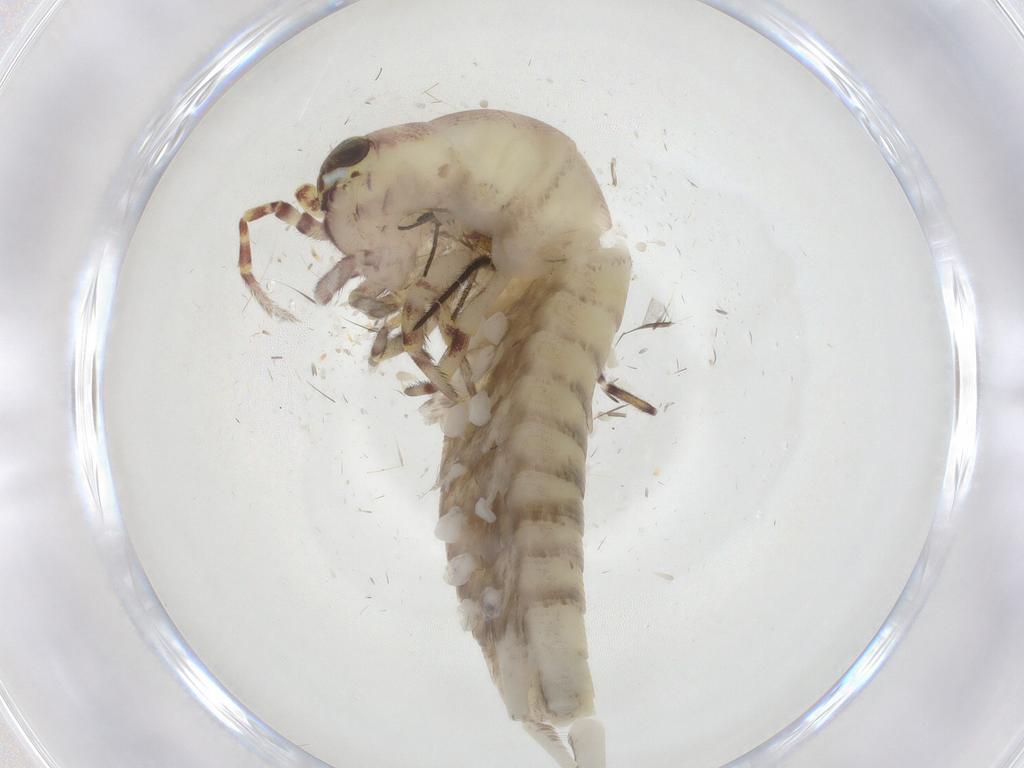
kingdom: Animalia
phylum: Arthropoda
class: Insecta
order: Archaeognatha
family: Meinertellidae
